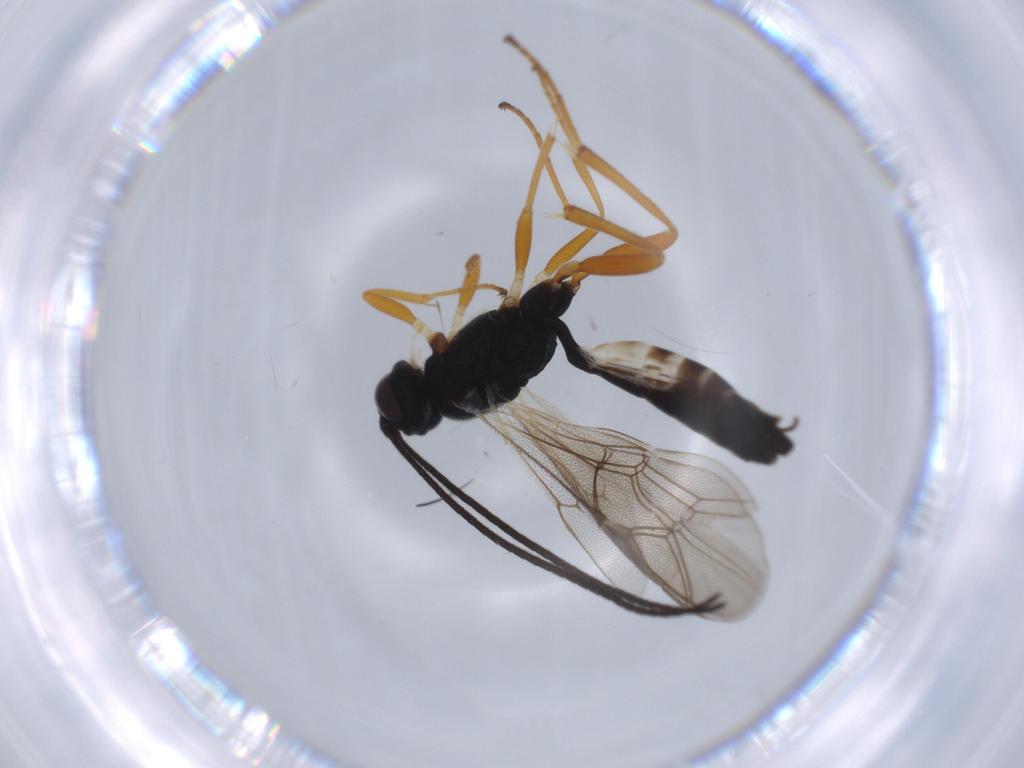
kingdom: Animalia
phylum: Arthropoda
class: Insecta
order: Hymenoptera
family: Ichneumonidae
